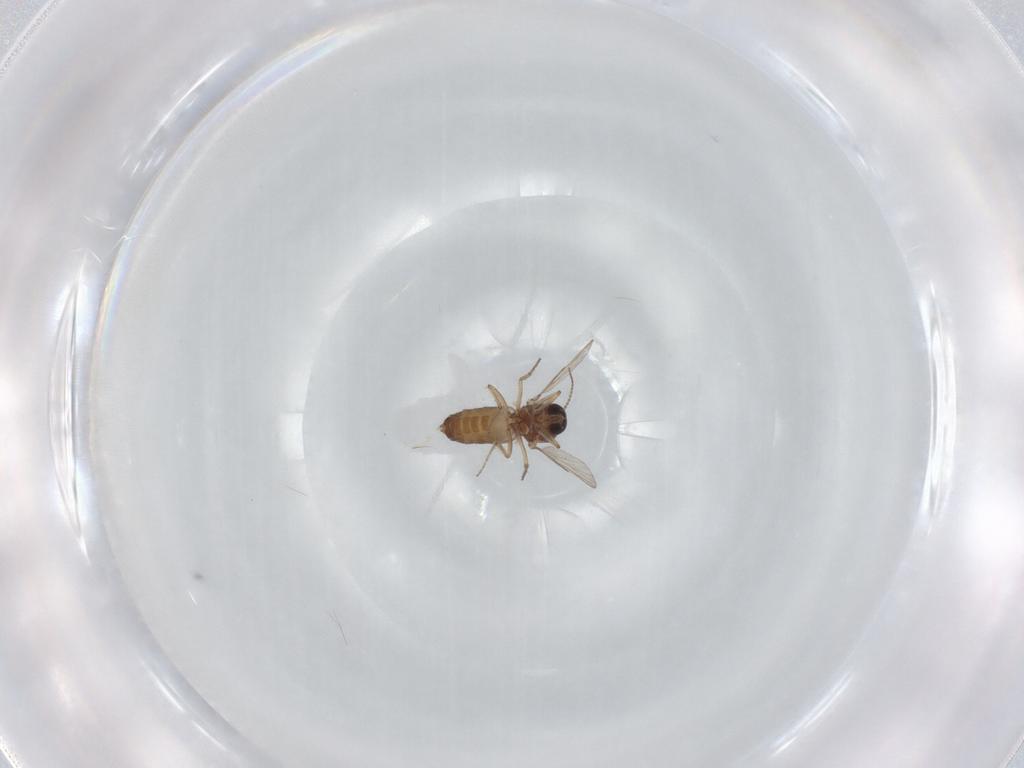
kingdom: Animalia
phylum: Arthropoda
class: Insecta
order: Diptera
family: Ceratopogonidae
